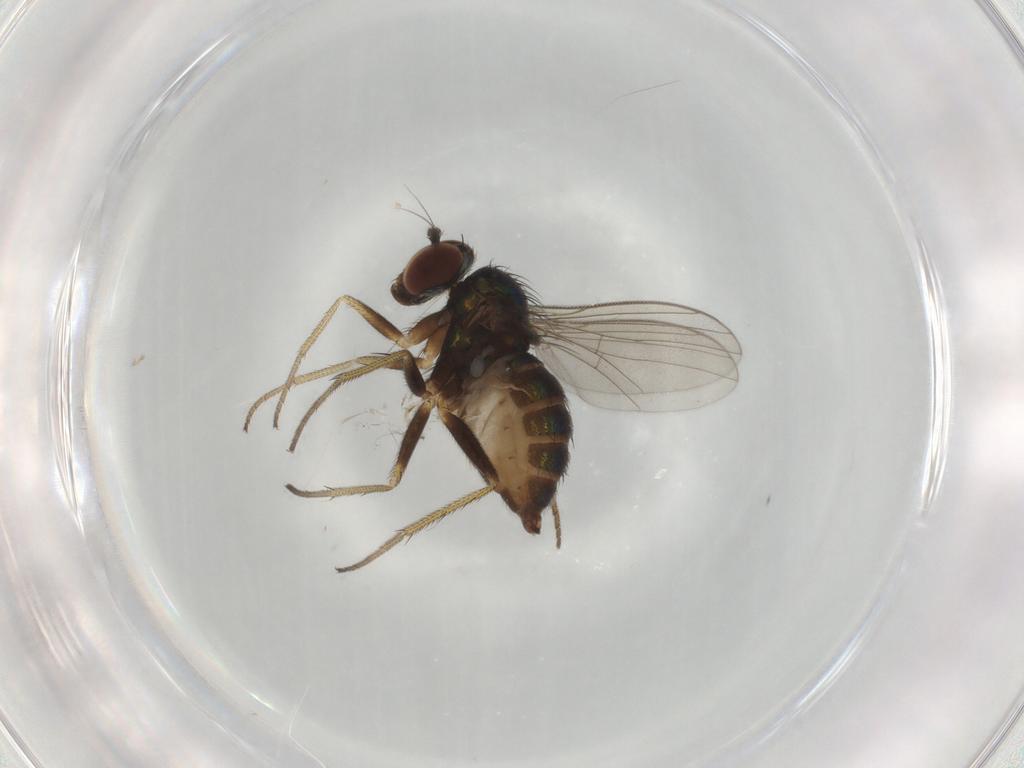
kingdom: Animalia
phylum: Arthropoda
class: Insecta
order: Diptera
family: Dolichopodidae
